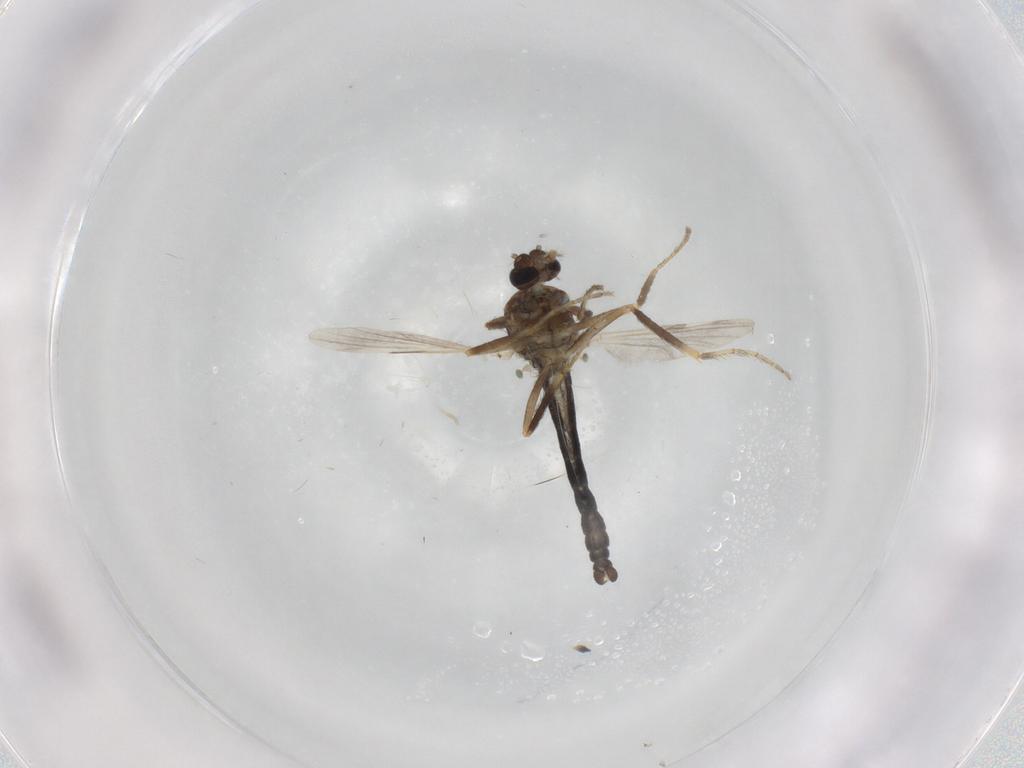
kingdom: Animalia
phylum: Arthropoda
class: Insecta
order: Diptera
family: Ceratopogonidae
